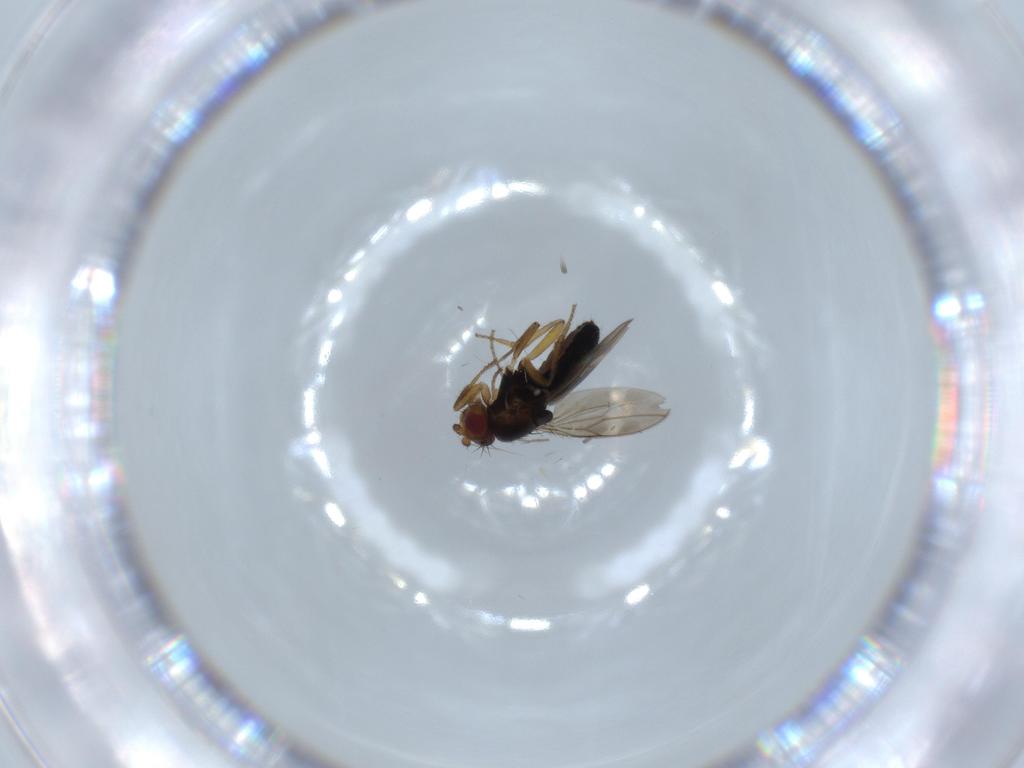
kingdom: Animalia
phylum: Arthropoda
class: Insecta
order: Diptera
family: Sphaeroceridae
